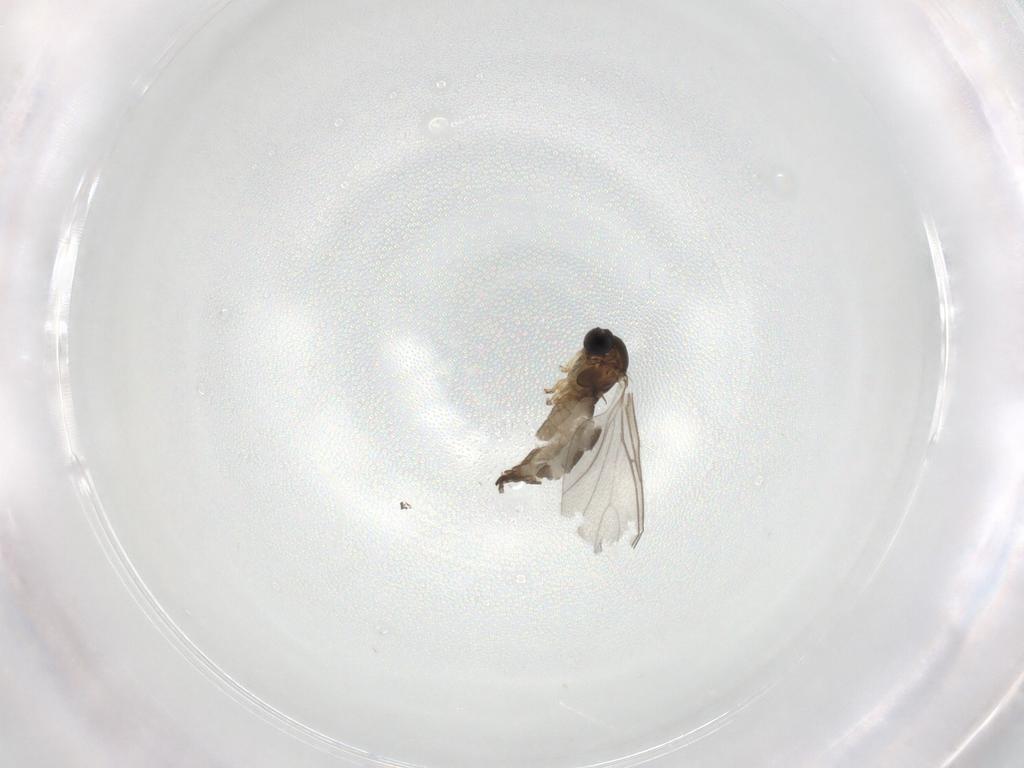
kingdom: Animalia
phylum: Arthropoda
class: Insecta
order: Diptera
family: Sciaridae
